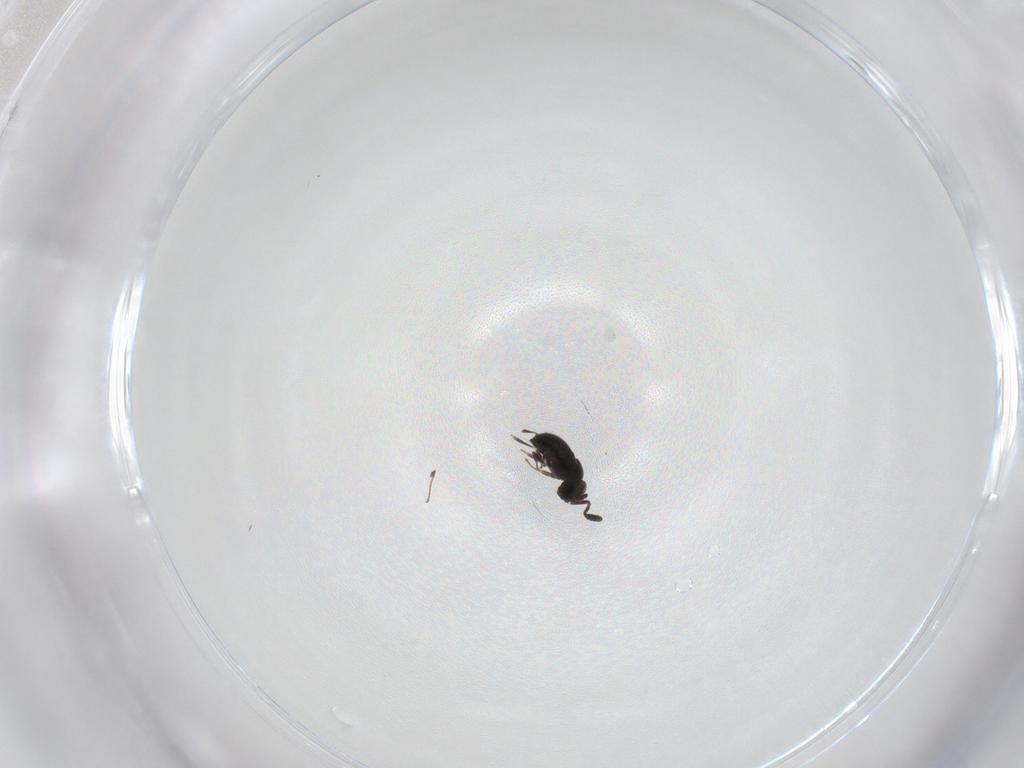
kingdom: Animalia
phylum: Arthropoda
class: Insecta
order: Hymenoptera
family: Scelionidae
